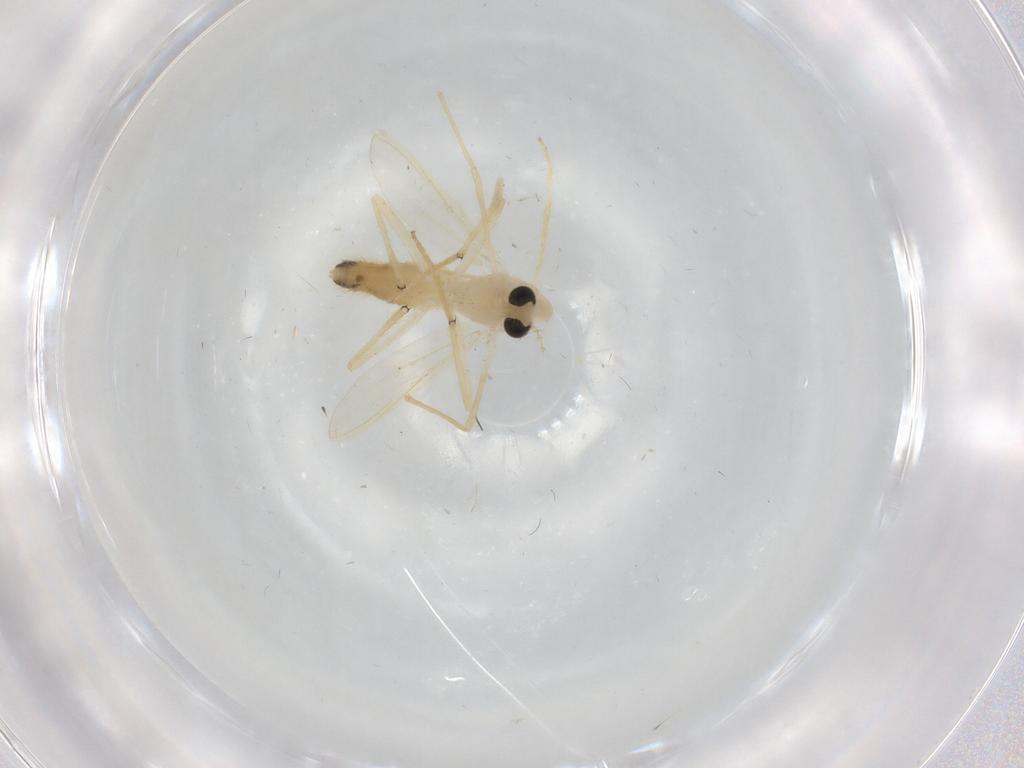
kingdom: Animalia
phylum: Arthropoda
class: Insecta
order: Diptera
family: Chironomidae
